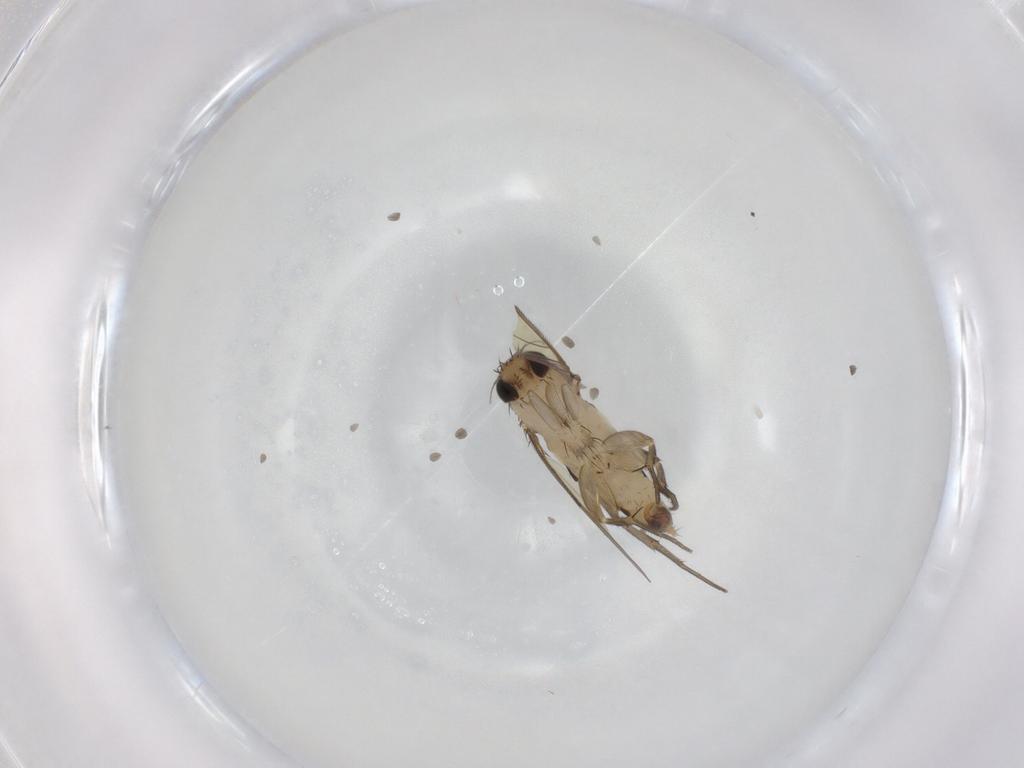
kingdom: Animalia
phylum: Arthropoda
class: Insecta
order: Diptera
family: Phoridae
